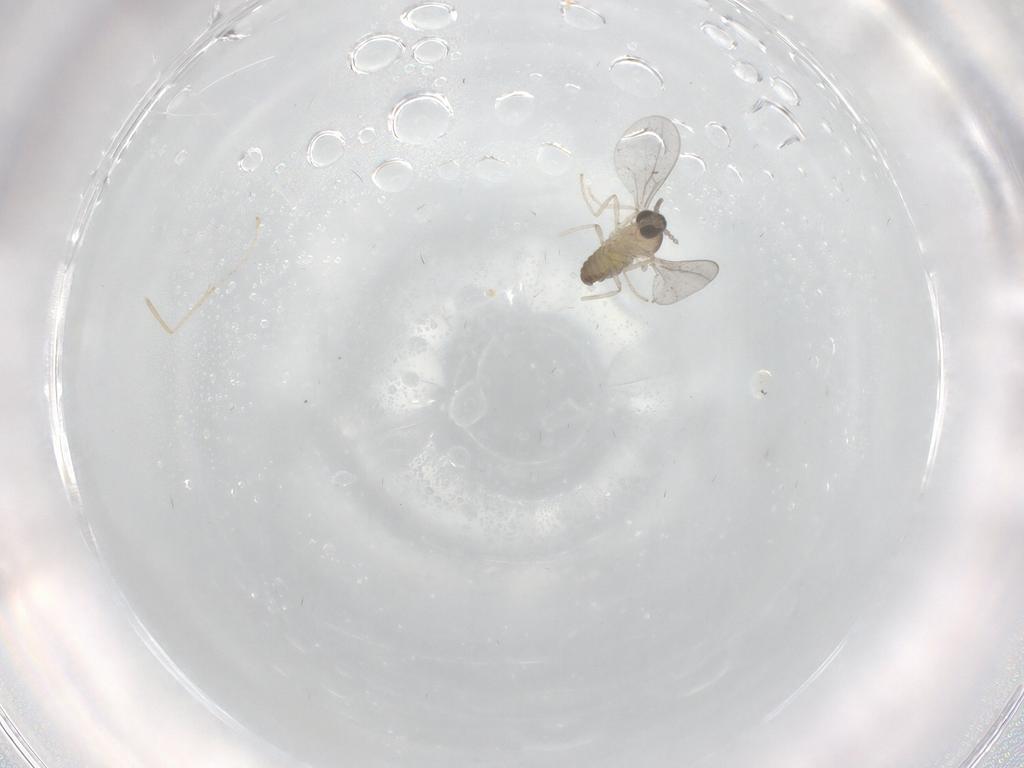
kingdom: Animalia
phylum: Arthropoda
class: Insecta
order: Diptera
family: Cecidomyiidae
